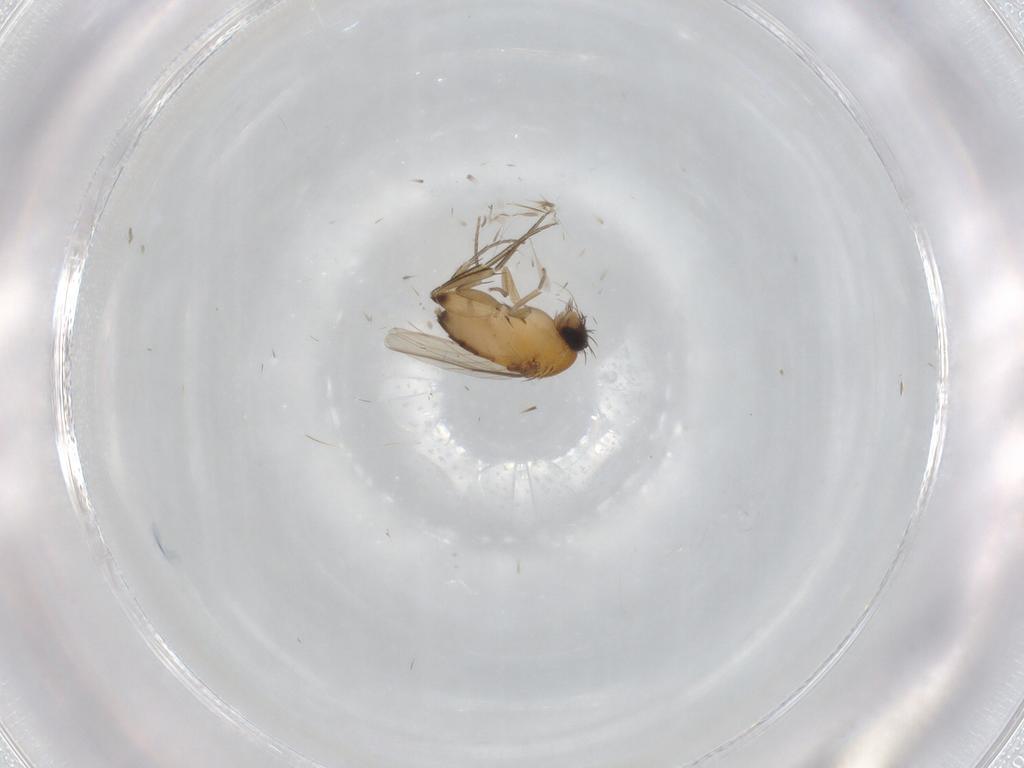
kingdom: Animalia
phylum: Arthropoda
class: Insecta
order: Diptera
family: Phoridae
